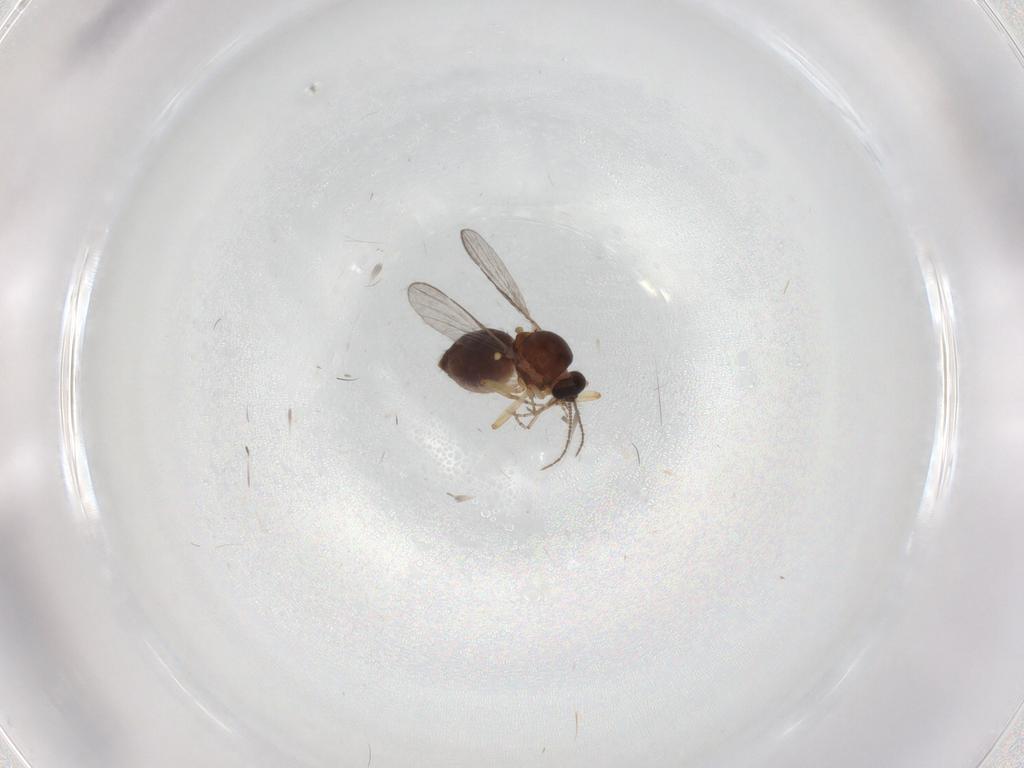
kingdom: Animalia
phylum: Arthropoda
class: Insecta
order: Diptera
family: Ceratopogonidae
